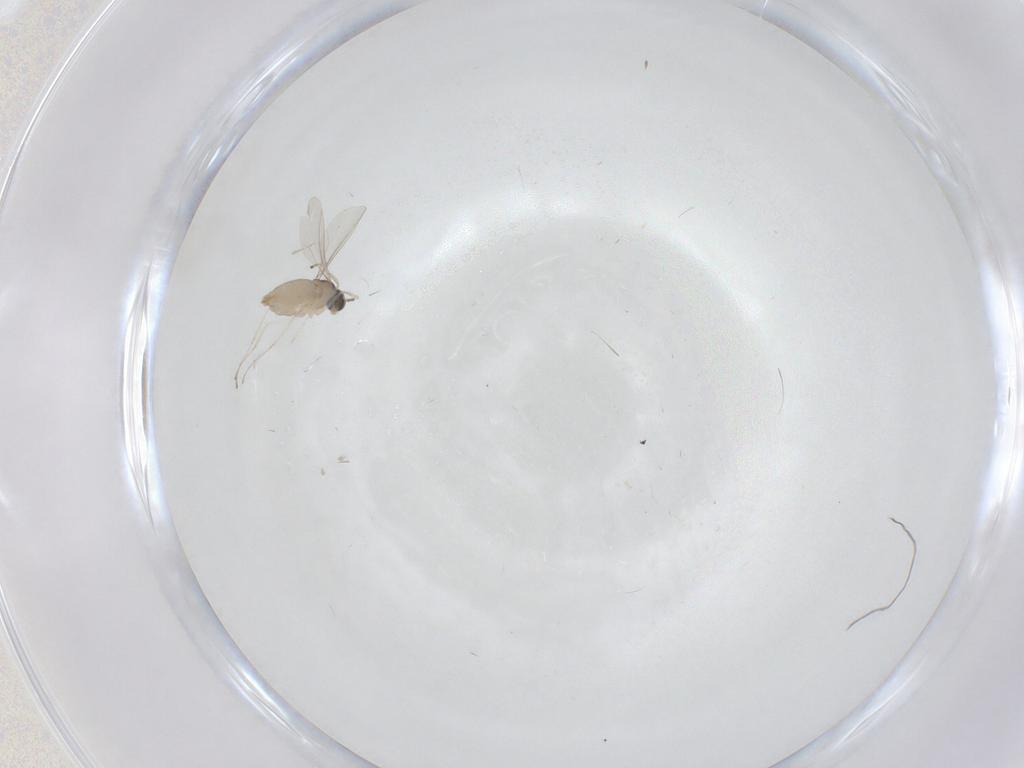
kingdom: Animalia
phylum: Arthropoda
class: Insecta
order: Diptera
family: Cecidomyiidae
